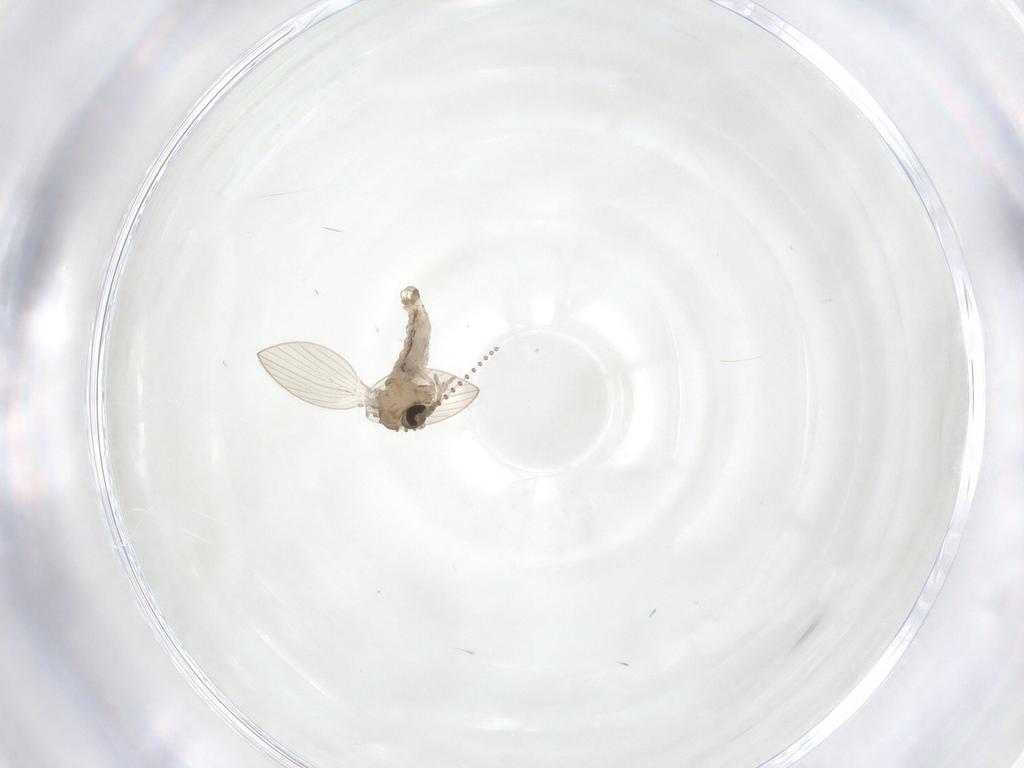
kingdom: Animalia
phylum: Arthropoda
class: Insecta
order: Diptera
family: Psychodidae
